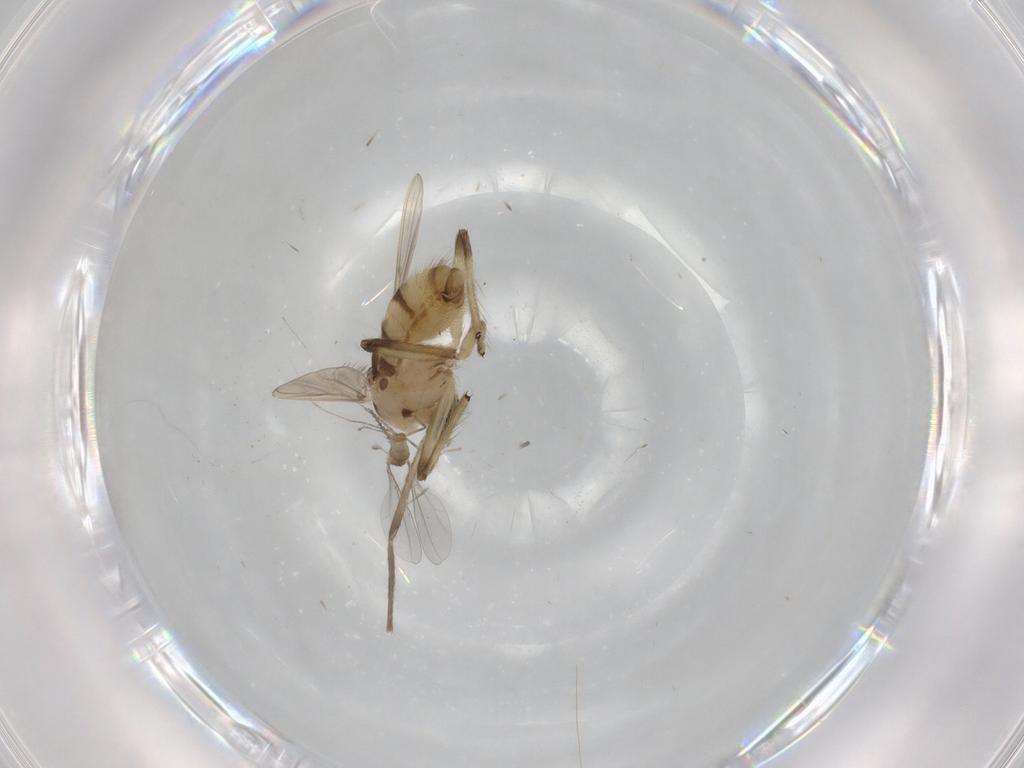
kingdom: Animalia
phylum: Arthropoda
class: Insecta
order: Diptera
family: Chironomidae
